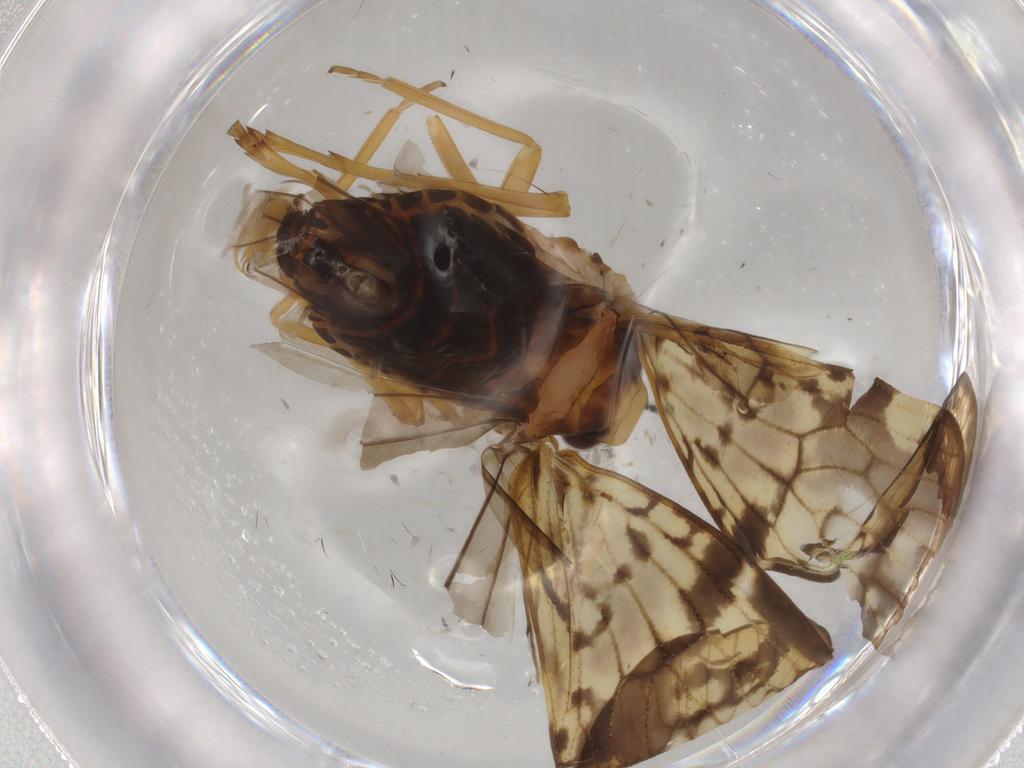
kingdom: Animalia
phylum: Arthropoda
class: Insecta
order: Hemiptera
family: Cixiidae
